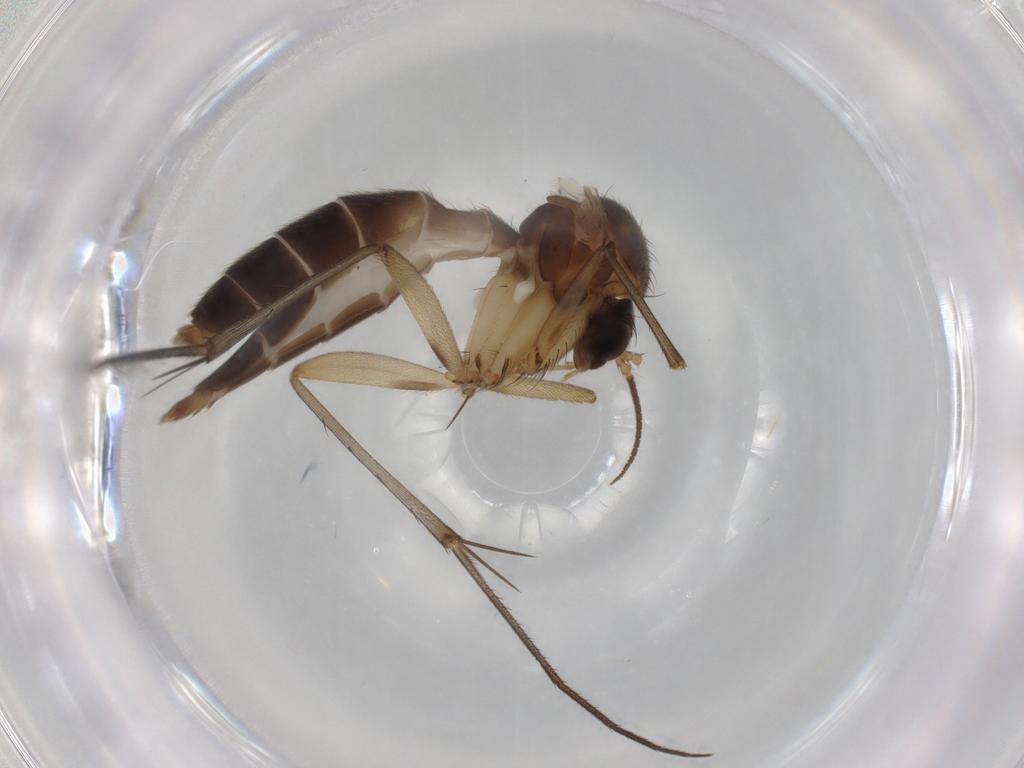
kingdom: Animalia
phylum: Arthropoda
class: Insecta
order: Diptera
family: Mycetophilidae
